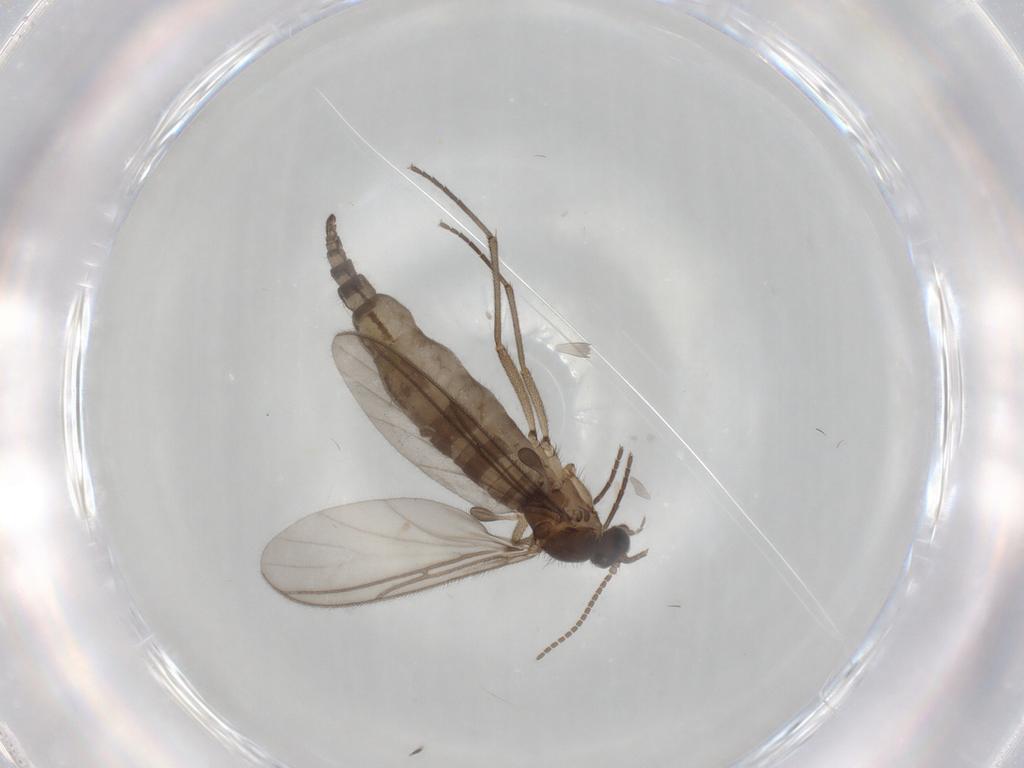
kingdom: Animalia
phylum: Arthropoda
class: Insecta
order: Diptera
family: Sciaridae
